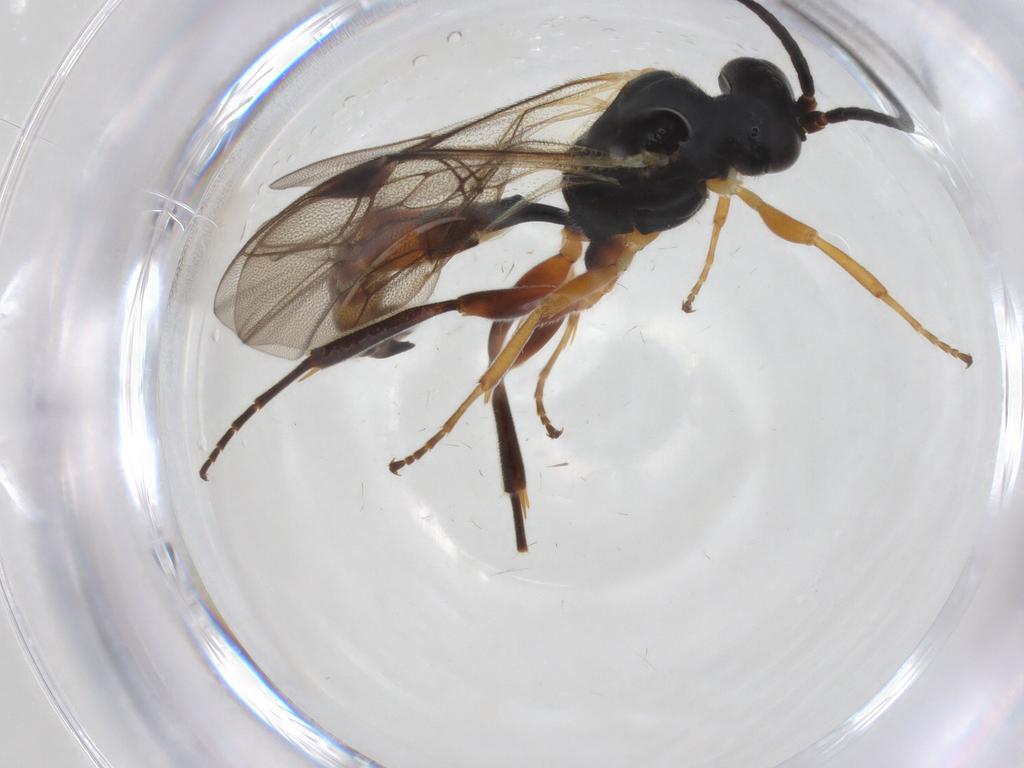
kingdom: Animalia
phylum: Arthropoda
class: Insecta
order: Hymenoptera
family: Ichneumonidae
